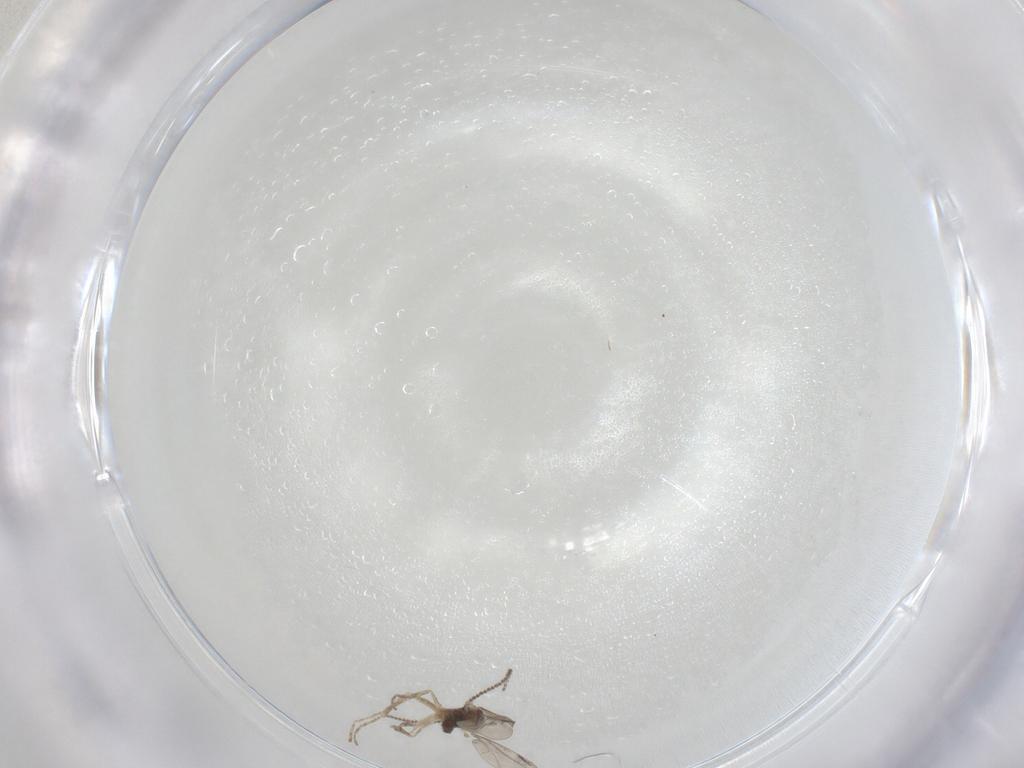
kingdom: Animalia
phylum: Arthropoda
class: Insecta
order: Diptera
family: Cecidomyiidae
